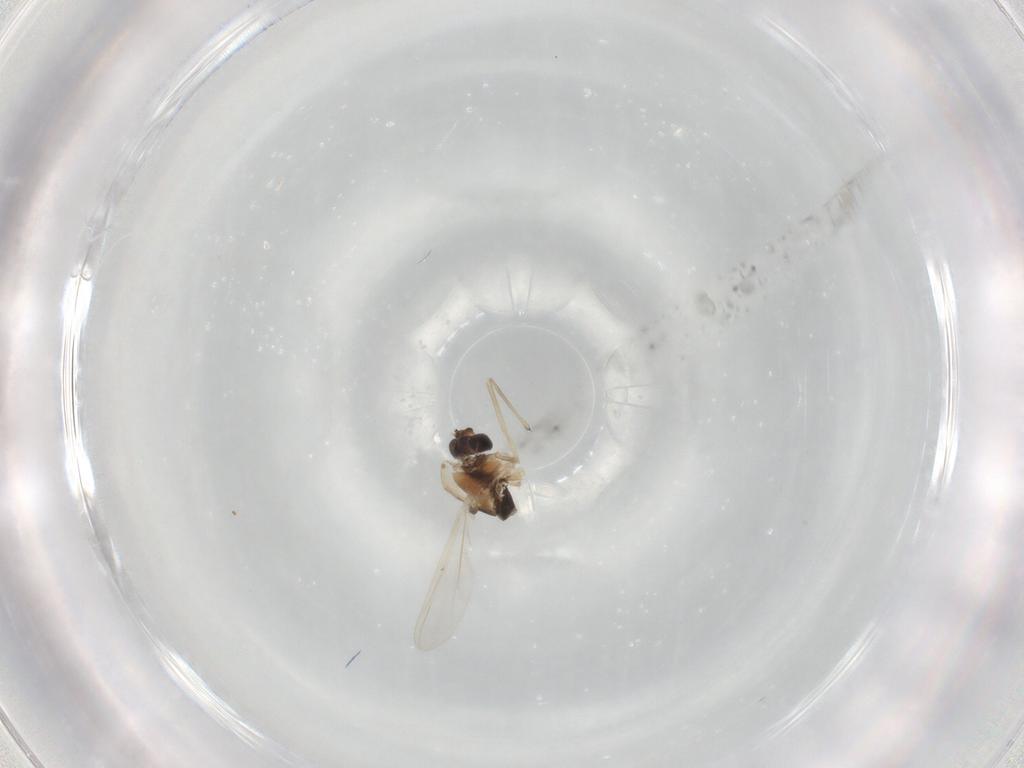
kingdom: Animalia
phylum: Arthropoda
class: Insecta
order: Diptera
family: Chironomidae
